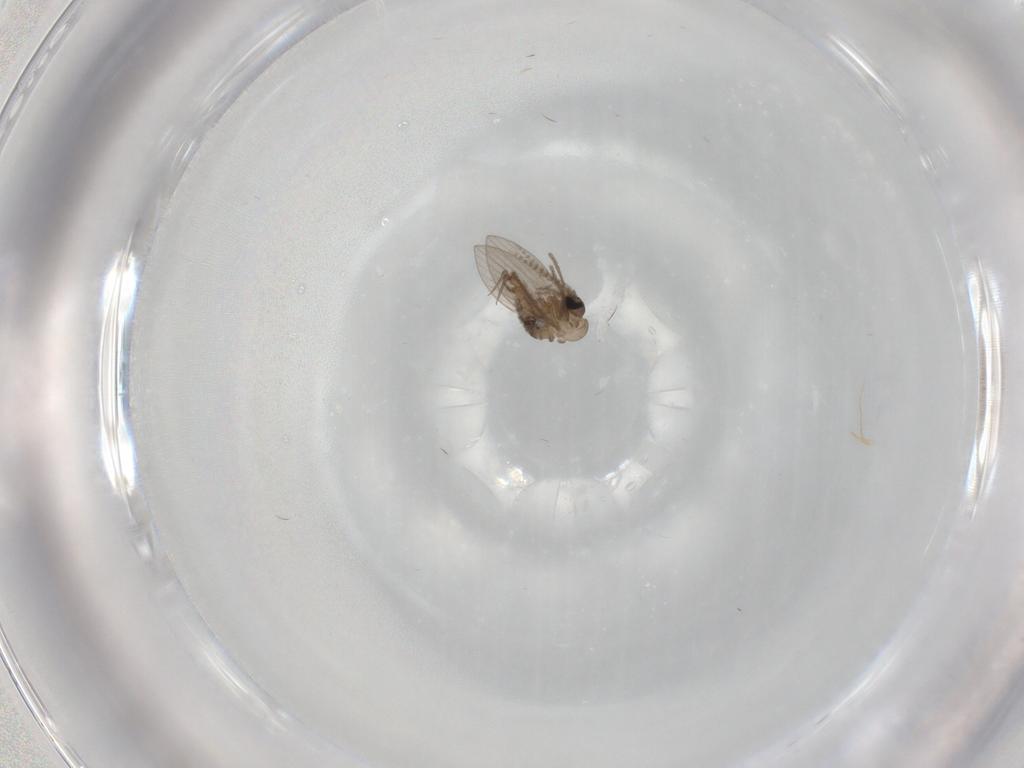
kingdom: Animalia
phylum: Arthropoda
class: Insecta
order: Diptera
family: Psychodidae
